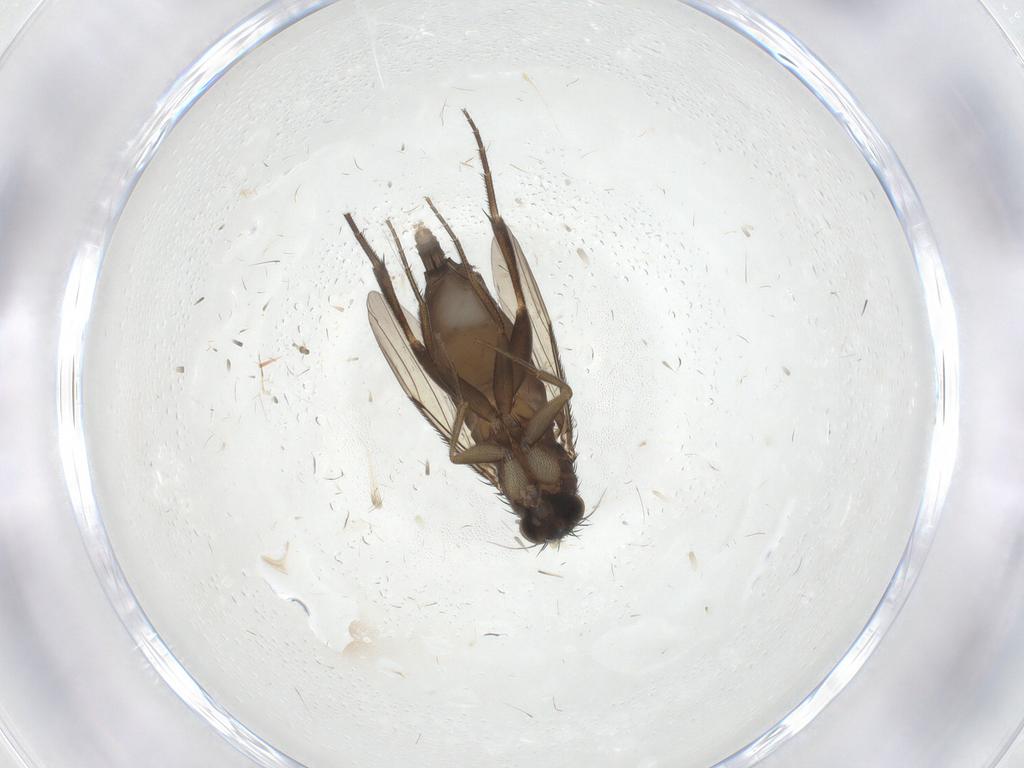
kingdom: Animalia
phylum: Arthropoda
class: Insecta
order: Diptera
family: Phoridae
